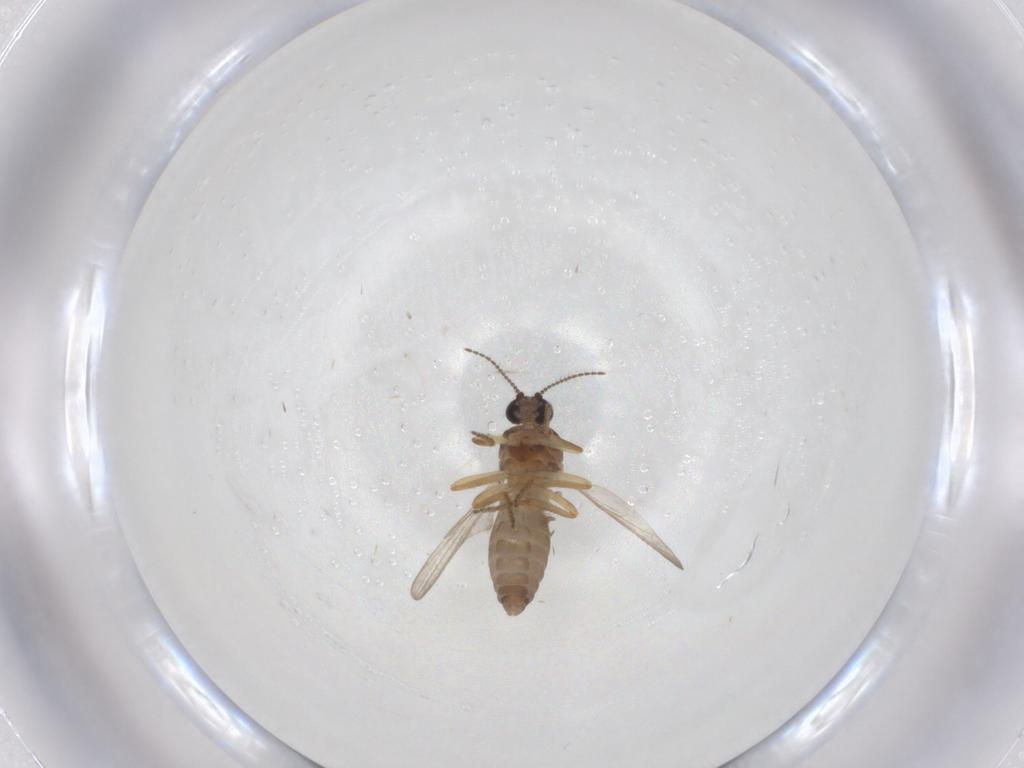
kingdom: Animalia
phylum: Arthropoda
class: Insecta
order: Diptera
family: Ceratopogonidae
